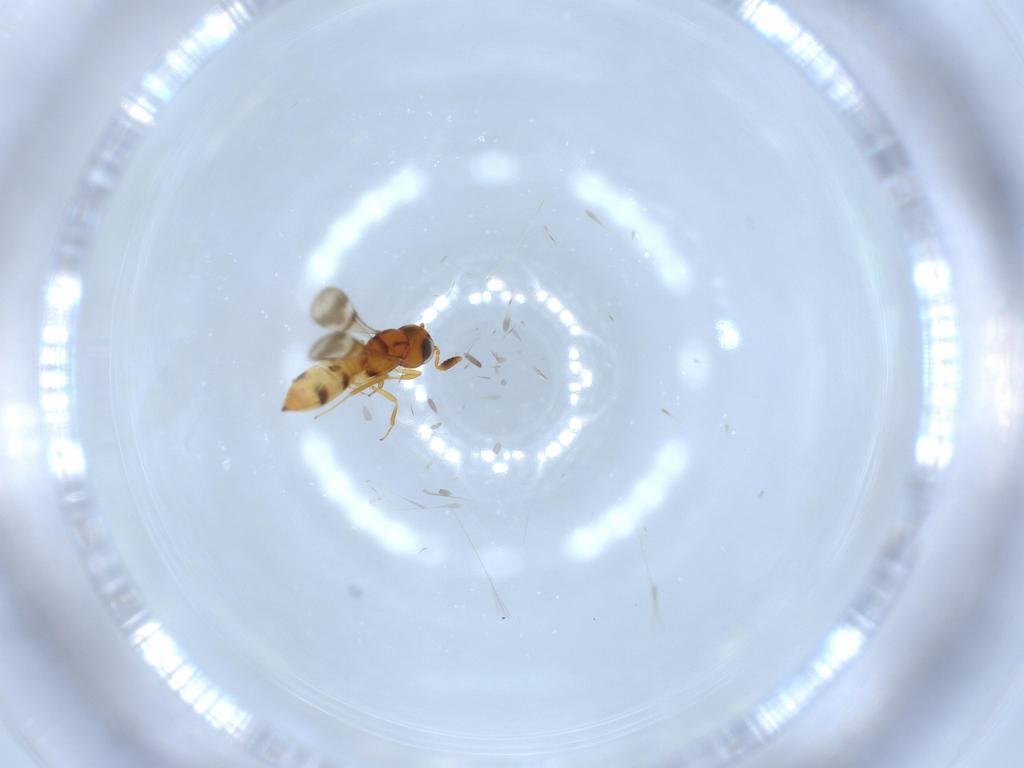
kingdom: Animalia
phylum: Arthropoda
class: Insecta
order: Hymenoptera
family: Scelionidae
